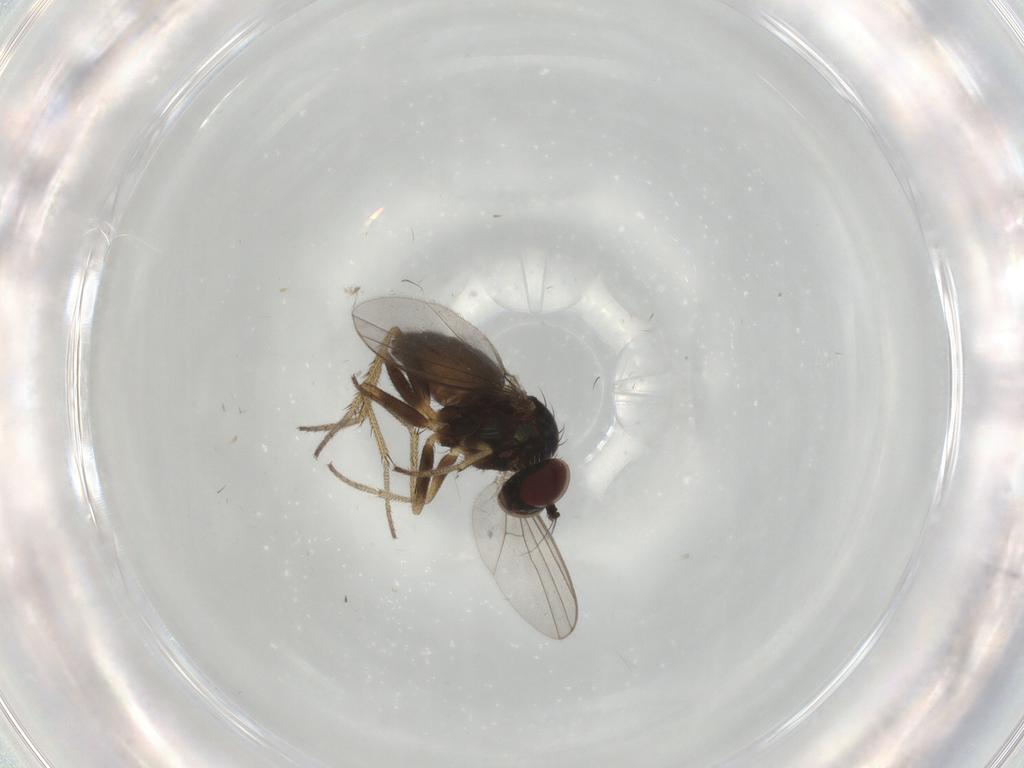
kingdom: Animalia
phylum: Arthropoda
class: Insecta
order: Diptera
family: Dolichopodidae
